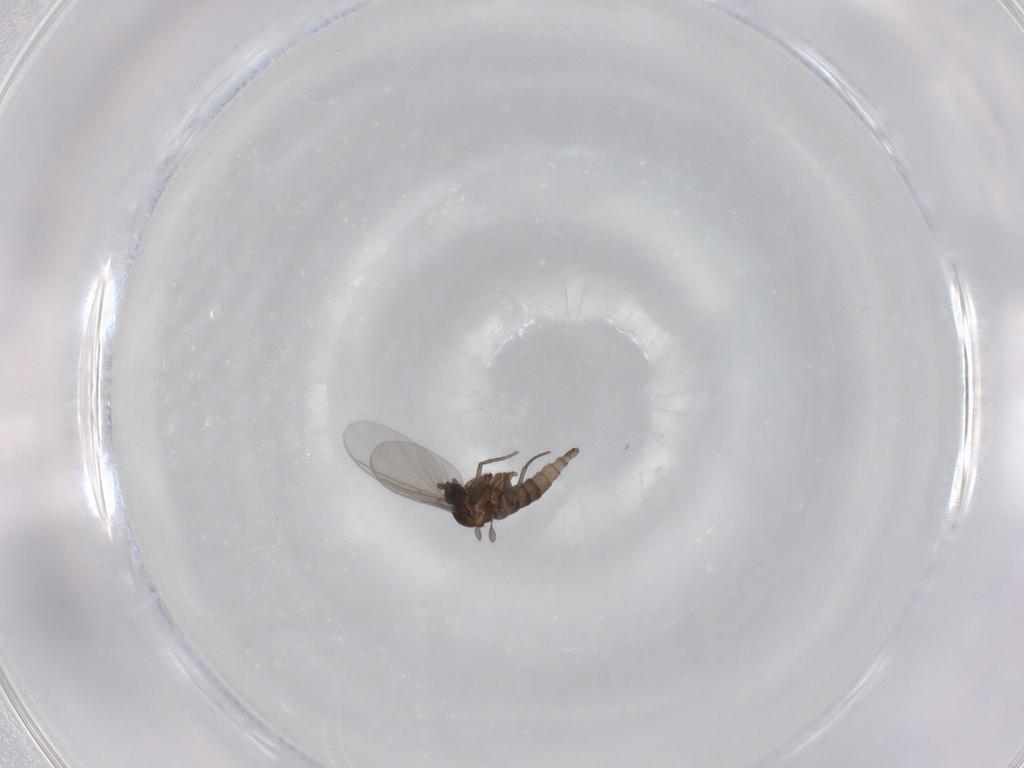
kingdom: Animalia
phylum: Arthropoda
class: Insecta
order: Diptera
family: Sciaridae
